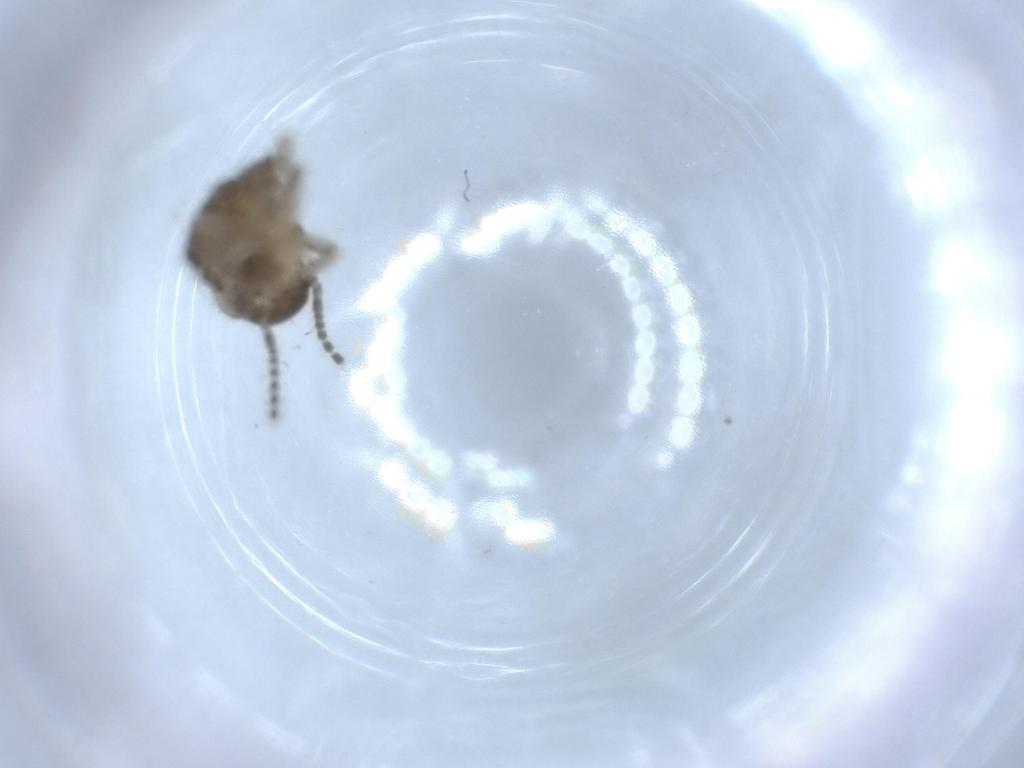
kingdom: Animalia
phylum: Arthropoda
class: Insecta
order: Blattodea
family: Ectobiidae
